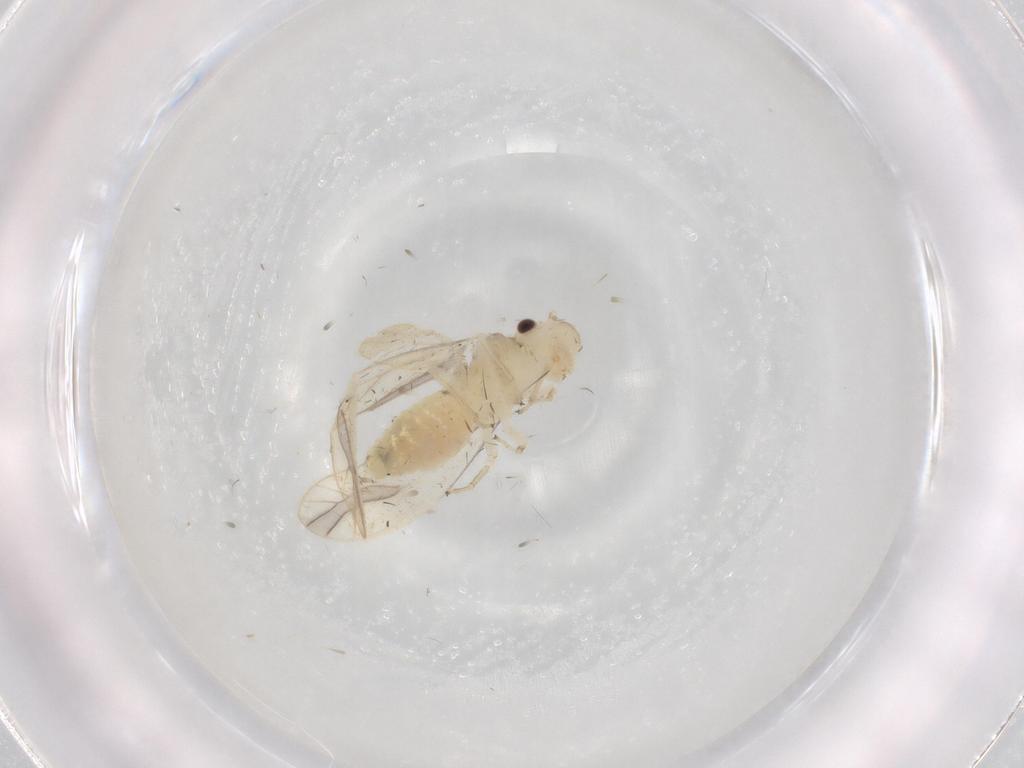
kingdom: Animalia
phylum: Arthropoda
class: Insecta
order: Psocodea
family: Caeciliusidae
